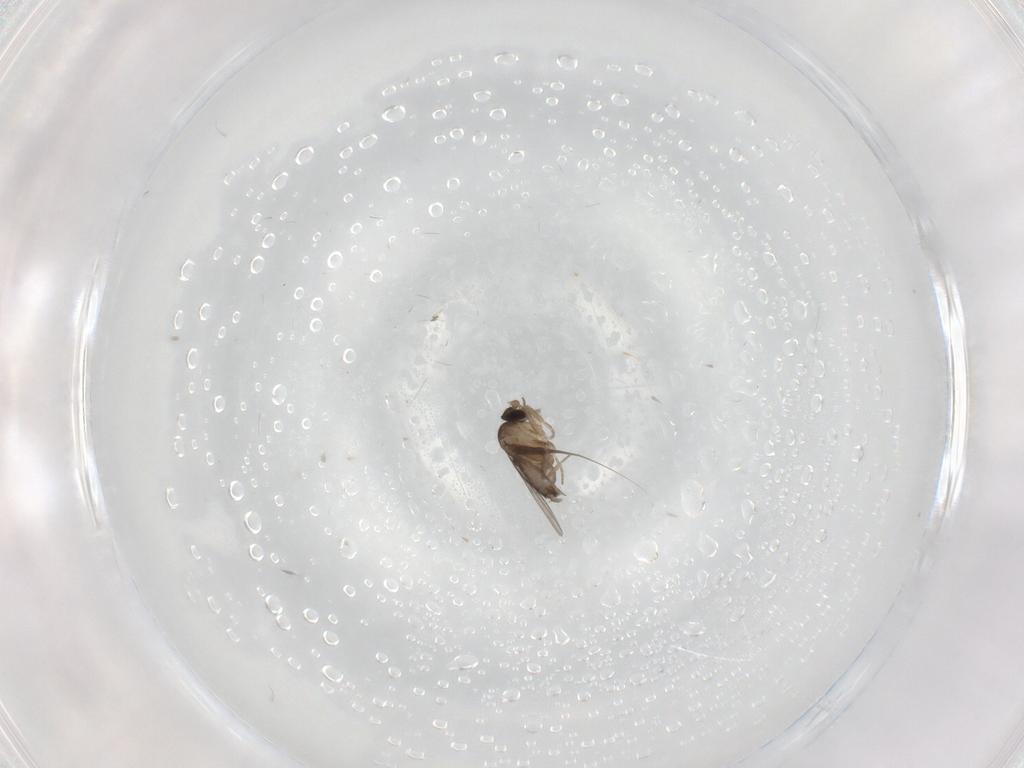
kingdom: Animalia
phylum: Arthropoda
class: Insecta
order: Diptera
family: Phoridae
